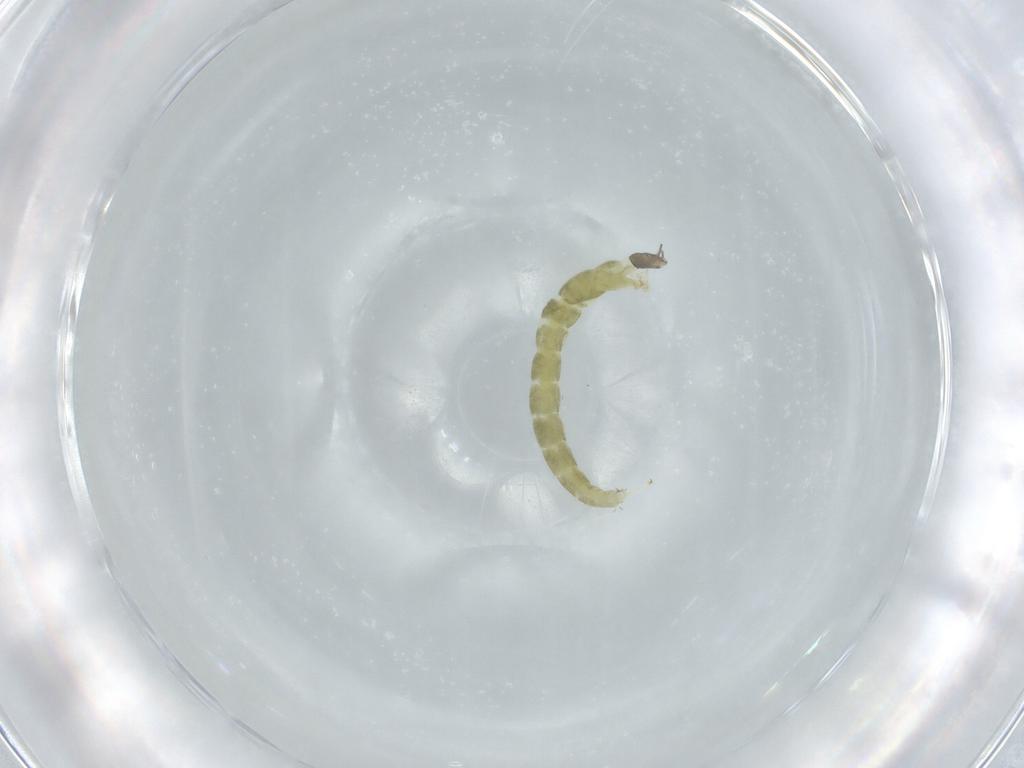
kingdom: Animalia
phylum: Arthropoda
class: Insecta
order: Diptera
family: Chironomidae
